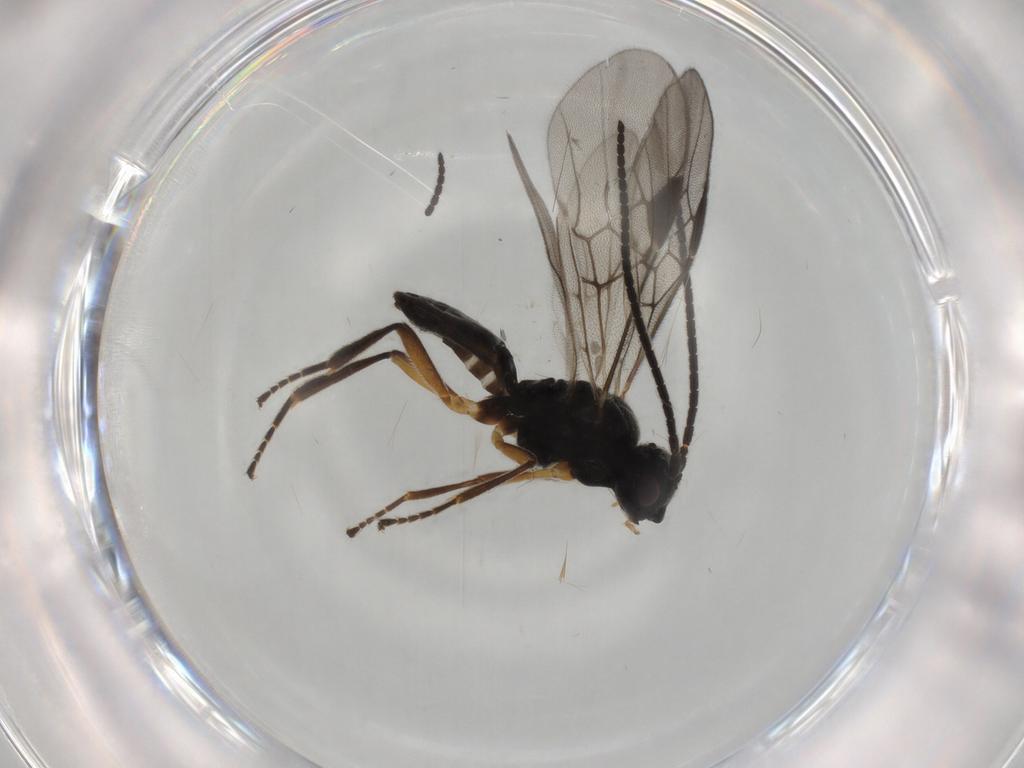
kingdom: Animalia
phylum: Arthropoda
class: Insecta
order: Hymenoptera
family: Braconidae
